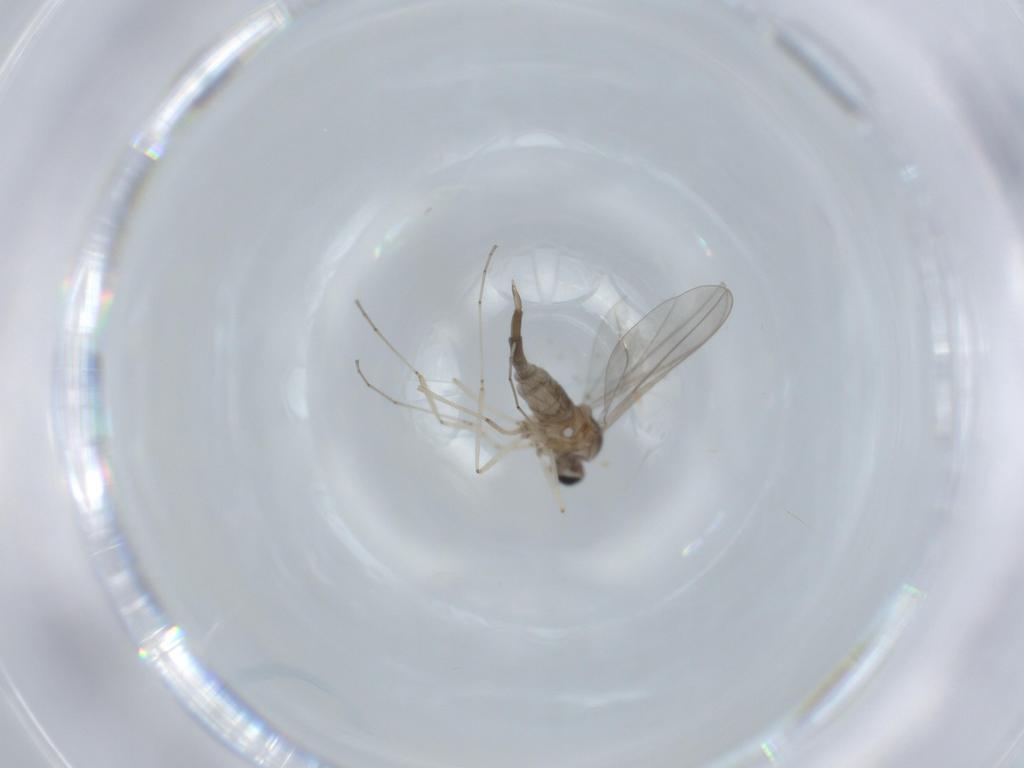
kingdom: Animalia
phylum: Arthropoda
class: Insecta
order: Diptera
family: Cecidomyiidae
